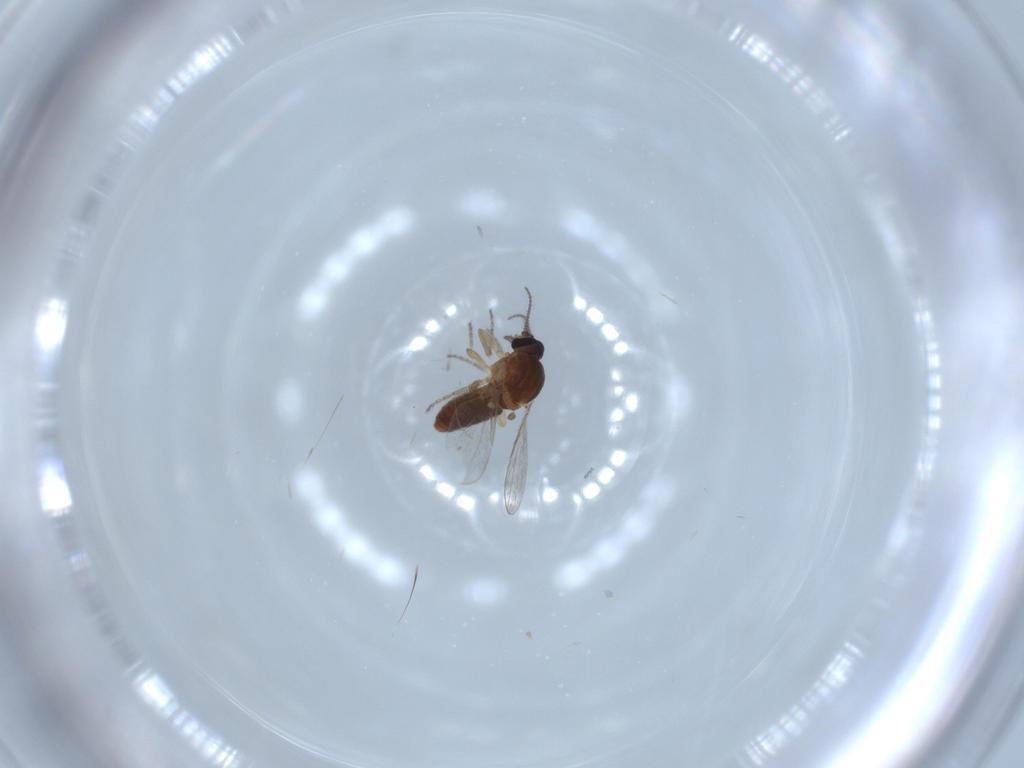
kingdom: Animalia
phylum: Arthropoda
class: Insecta
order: Diptera
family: Ceratopogonidae
